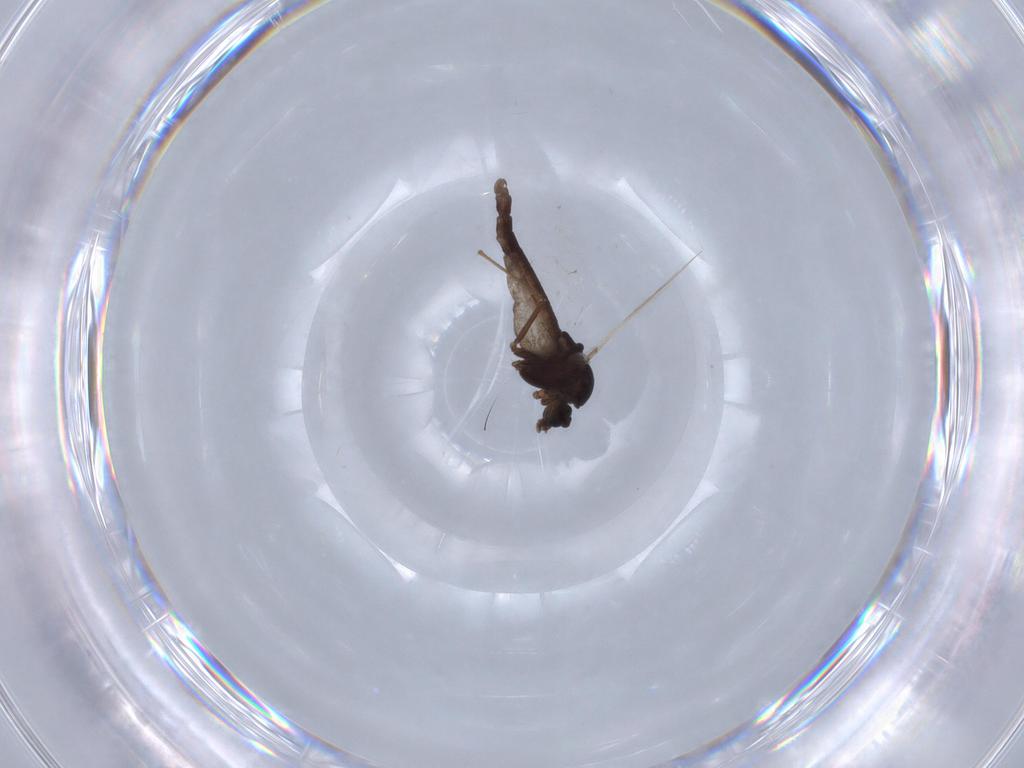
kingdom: Animalia
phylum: Arthropoda
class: Insecta
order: Diptera
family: Chironomidae
